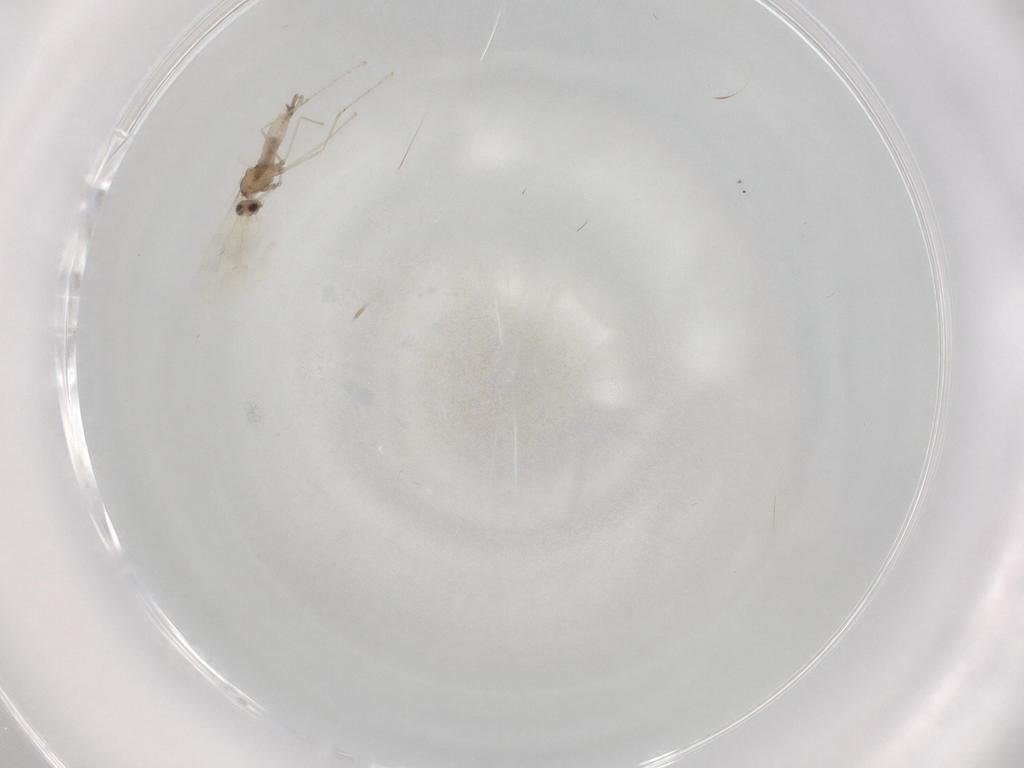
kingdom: Animalia
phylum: Arthropoda
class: Insecta
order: Diptera
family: Cecidomyiidae
